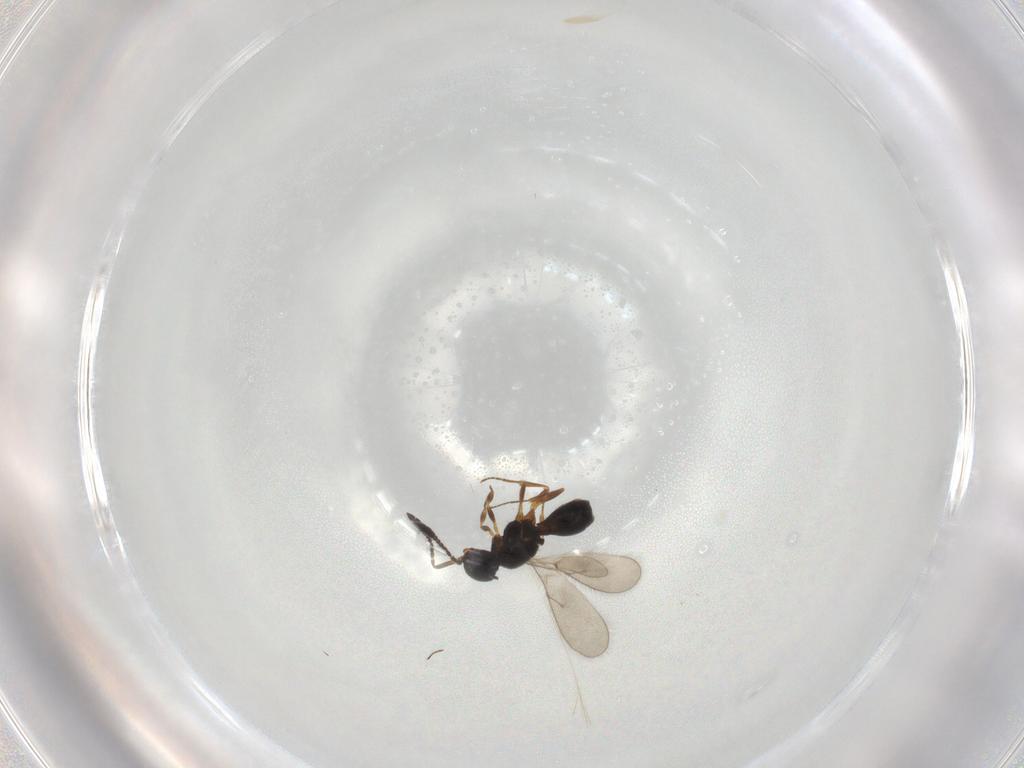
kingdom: Animalia
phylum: Arthropoda
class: Insecta
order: Hymenoptera
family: Scelionidae
